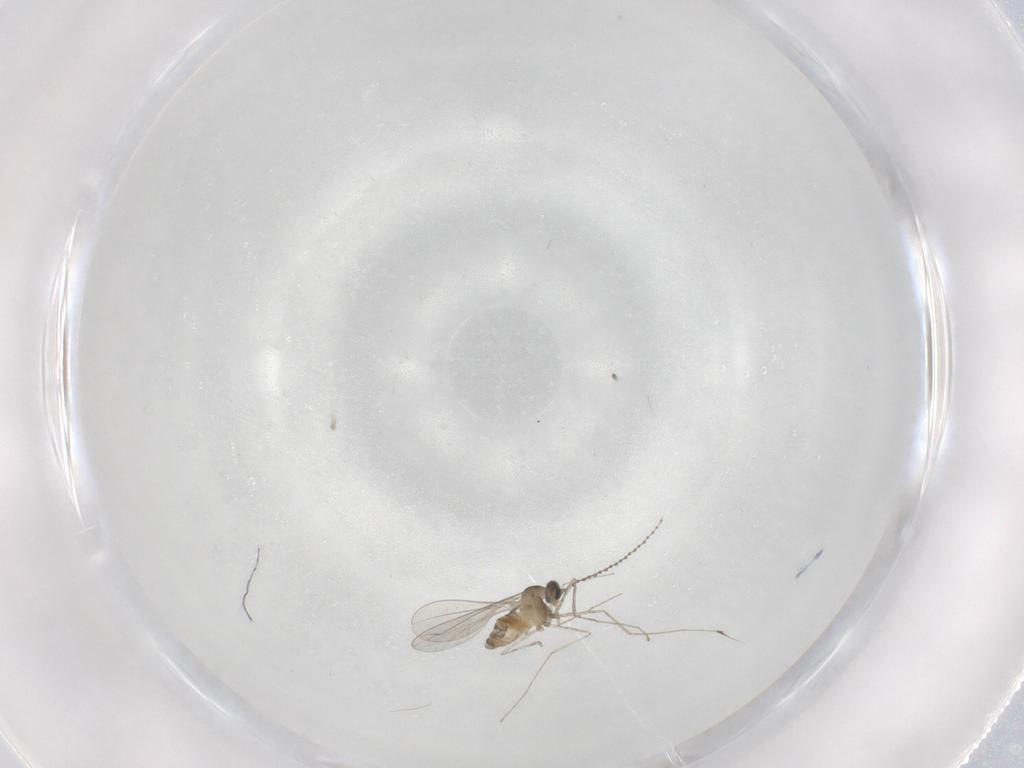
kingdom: Animalia
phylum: Arthropoda
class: Insecta
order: Diptera
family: Cecidomyiidae
